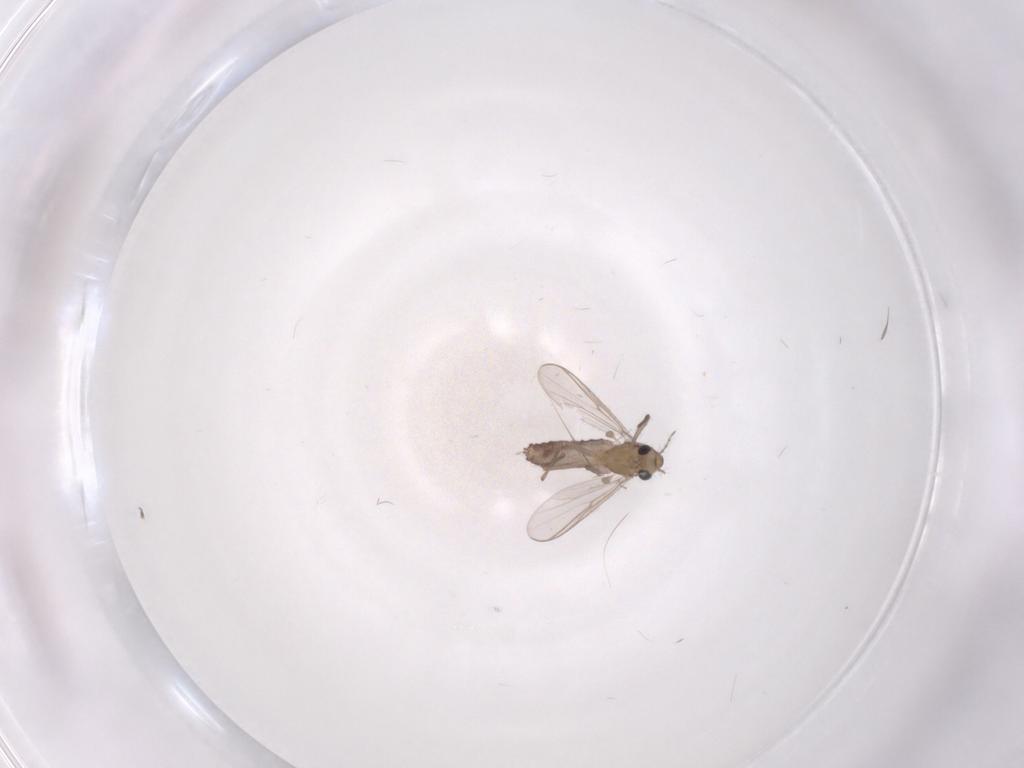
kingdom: Animalia
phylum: Arthropoda
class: Insecta
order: Diptera
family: Chironomidae
